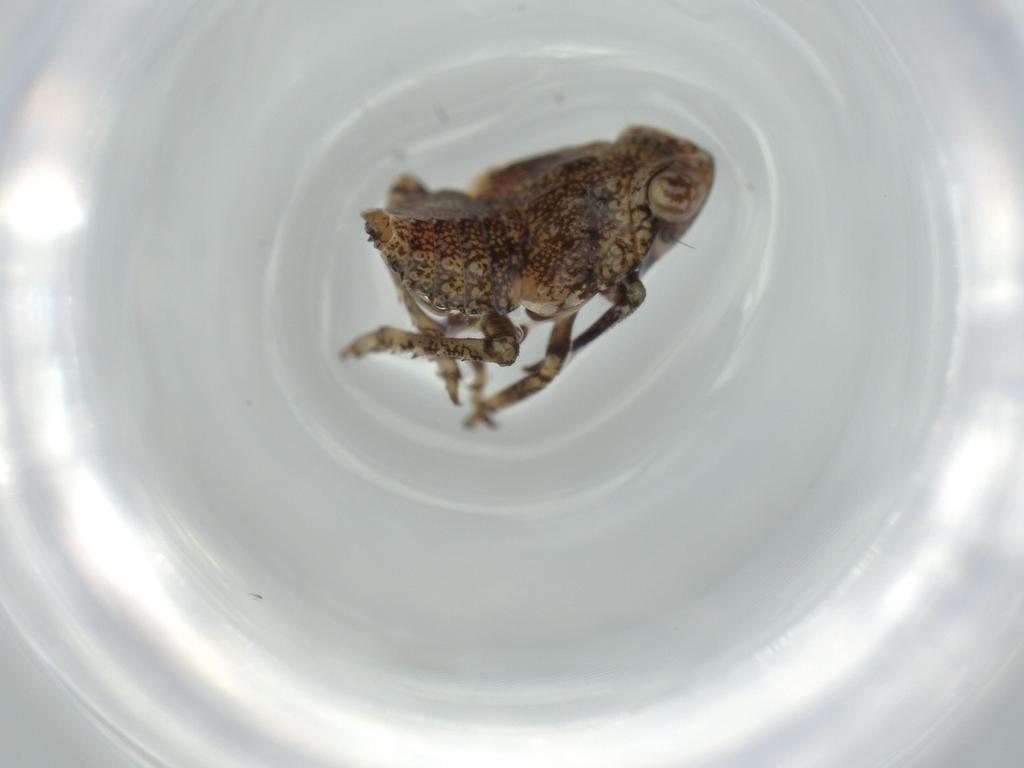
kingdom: Animalia
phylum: Arthropoda
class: Insecta
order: Hemiptera
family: Issidae
